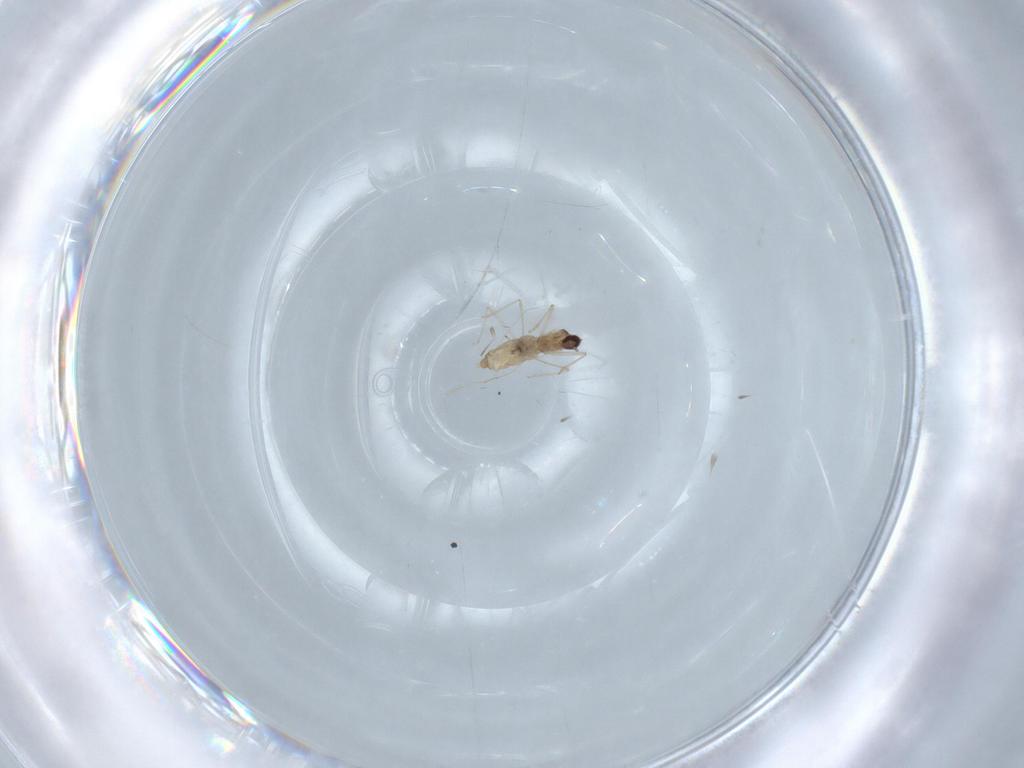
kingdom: Animalia
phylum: Arthropoda
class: Insecta
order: Diptera
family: Cecidomyiidae
